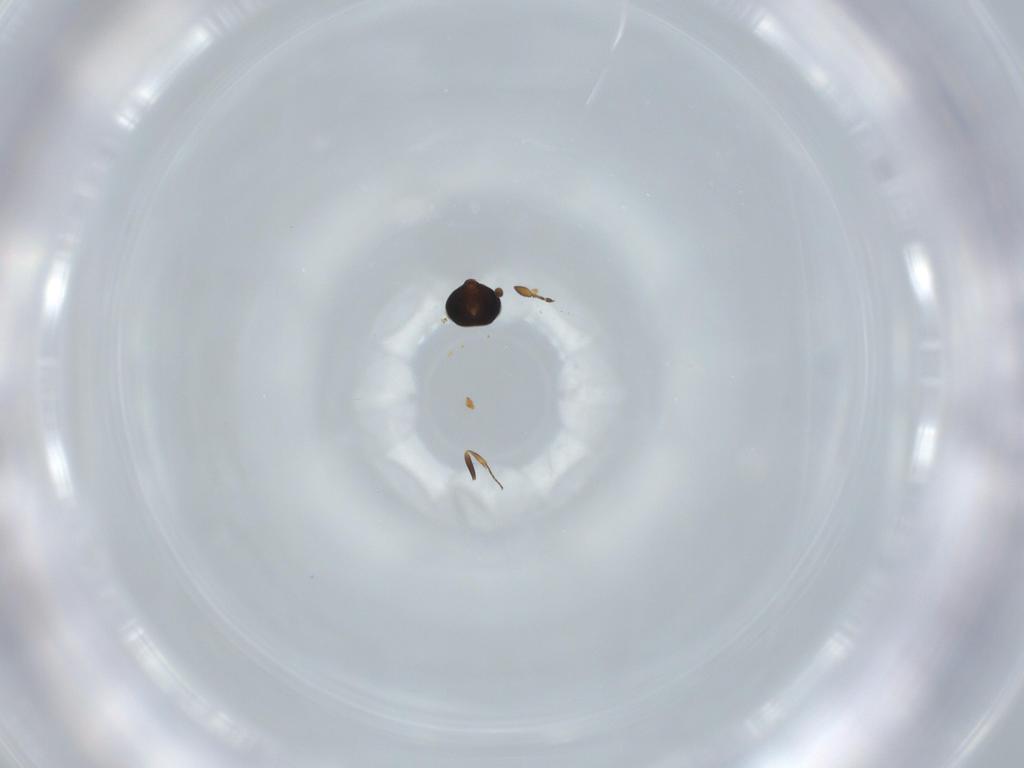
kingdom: Animalia
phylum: Arthropoda
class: Insecta
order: Hymenoptera
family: Scelionidae
